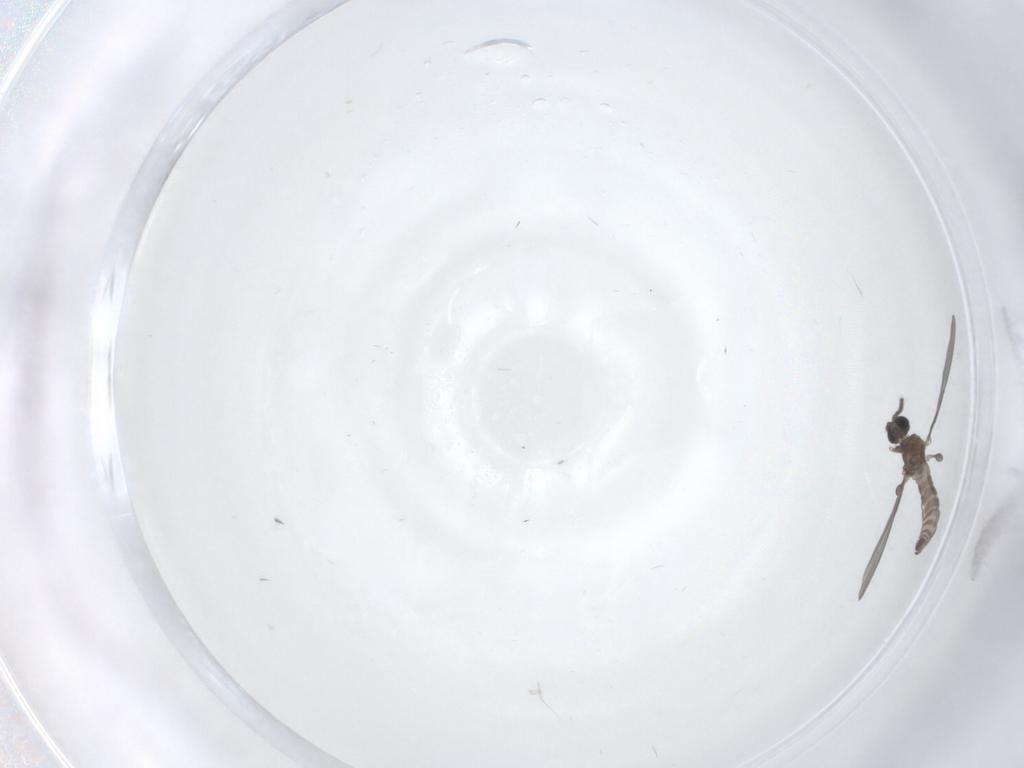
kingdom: Animalia
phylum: Arthropoda
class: Insecta
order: Diptera
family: Sciaridae
